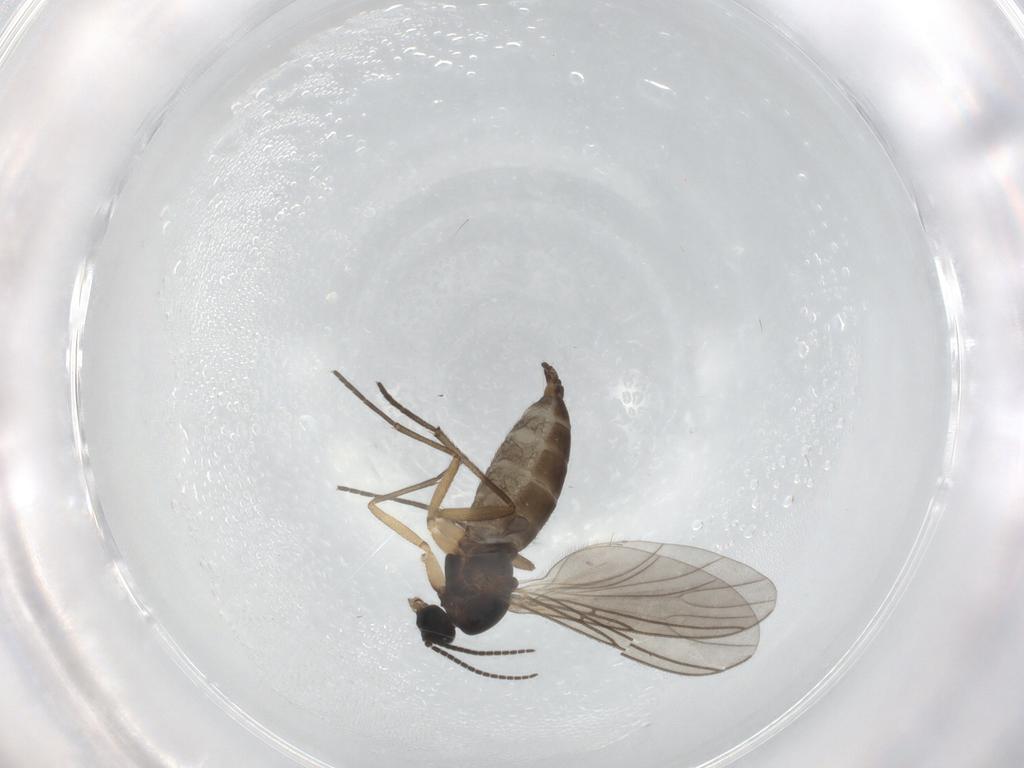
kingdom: Animalia
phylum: Arthropoda
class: Insecta
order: Diptera
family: Sciaridae
